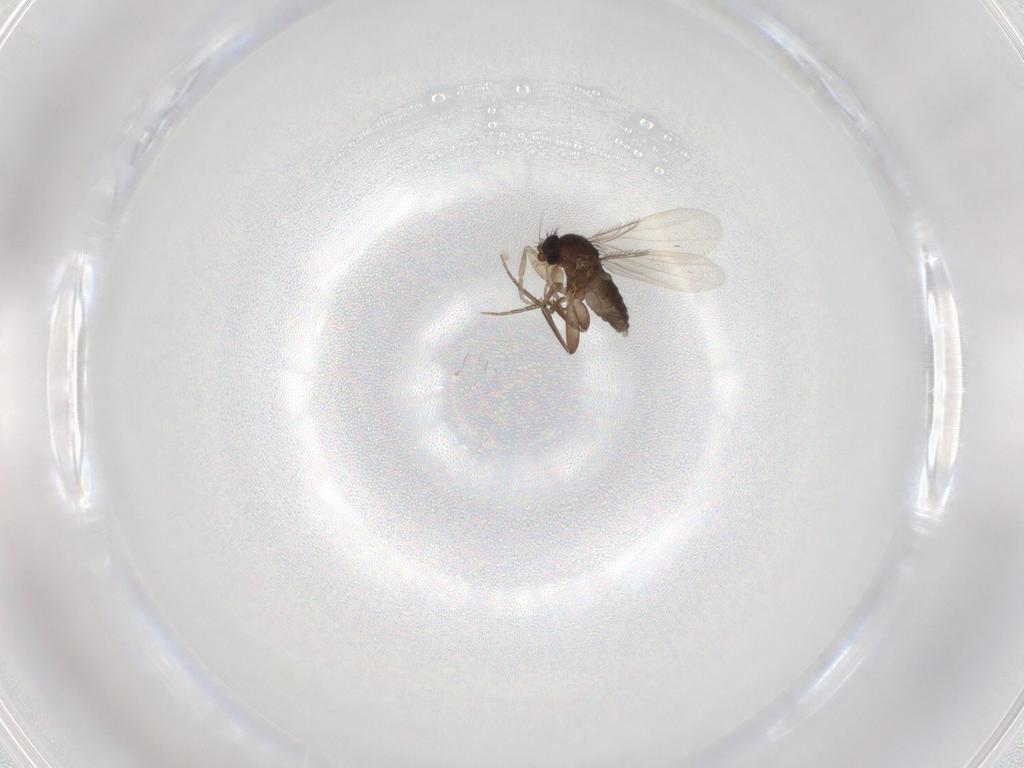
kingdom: Animalia
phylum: Arthropoda
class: Insecta
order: Diptera
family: Phoridae
